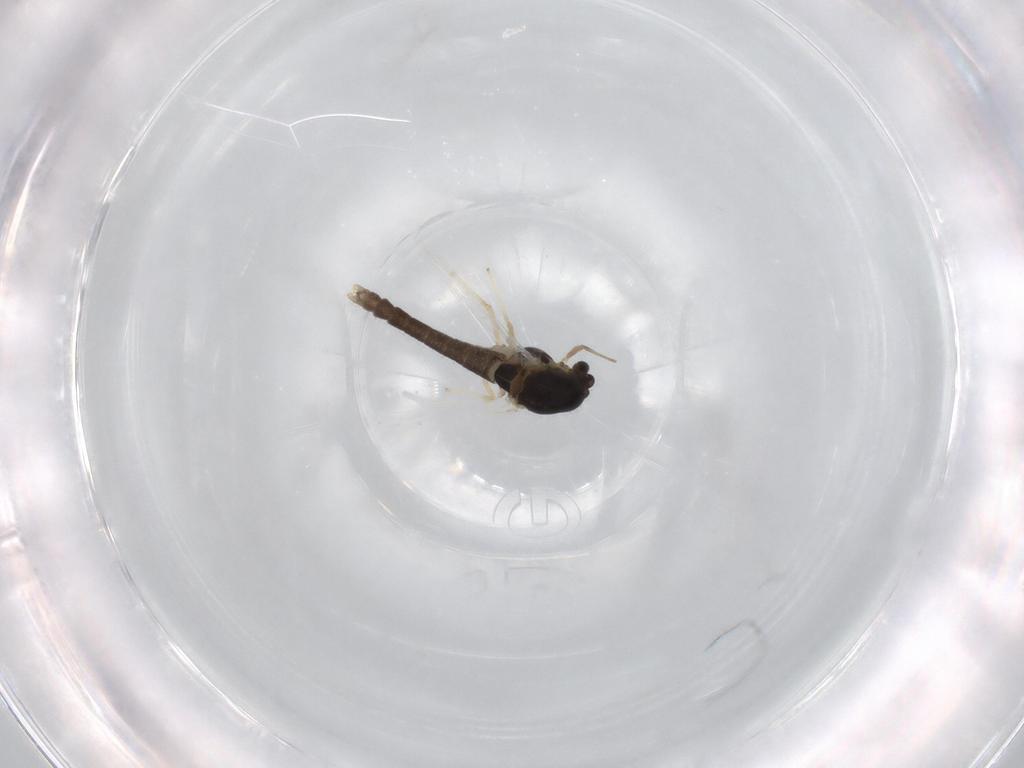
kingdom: Animalia
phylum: Arthropoda
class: Insecta
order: Diptera
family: Chironomidae
